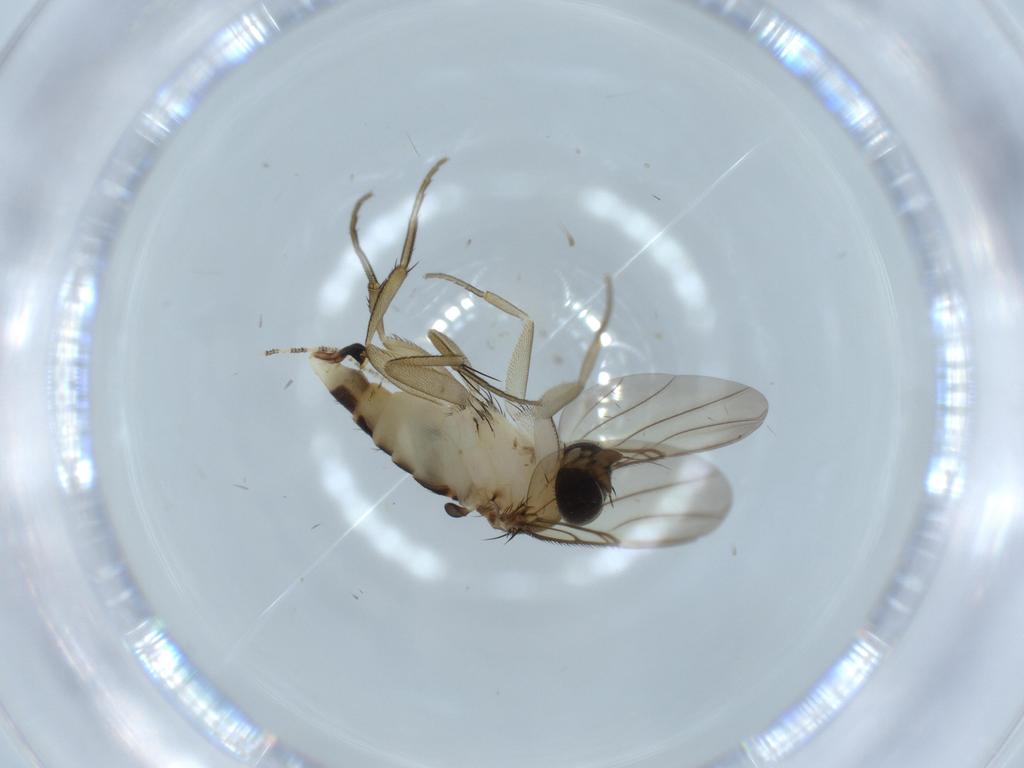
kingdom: Animalia
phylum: Arthropoda
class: Insecta
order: Diptera
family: Phoridae
